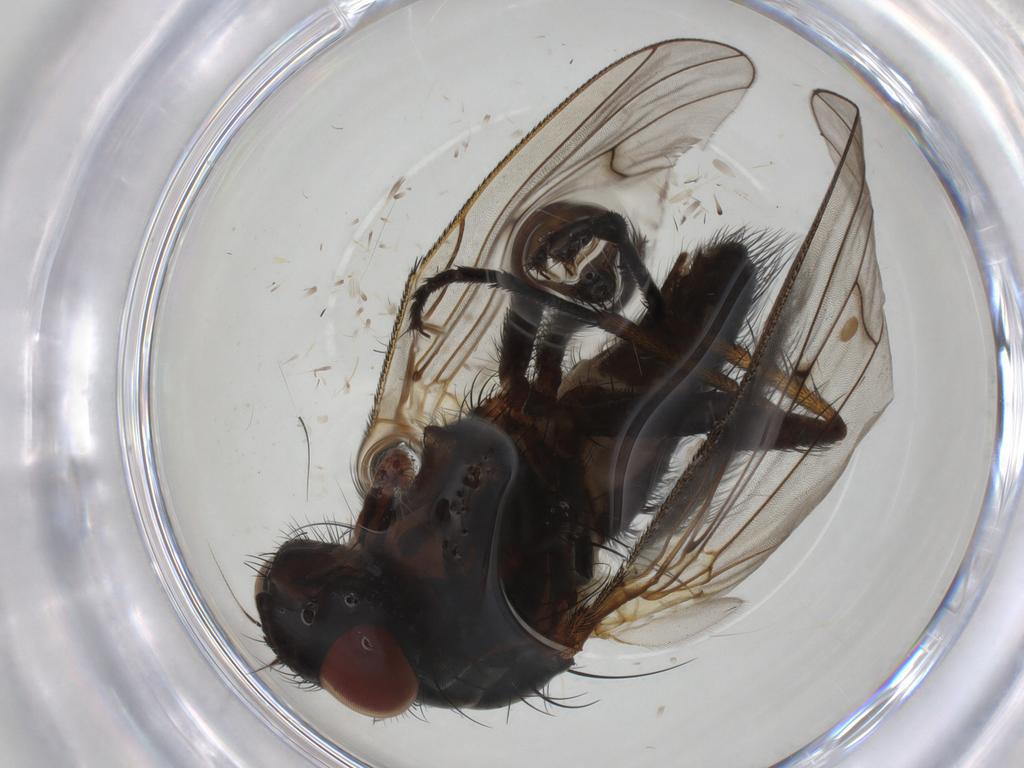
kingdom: Animalia
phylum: Arthropoda
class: Insecta
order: Diptera
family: Anthomyiidae
